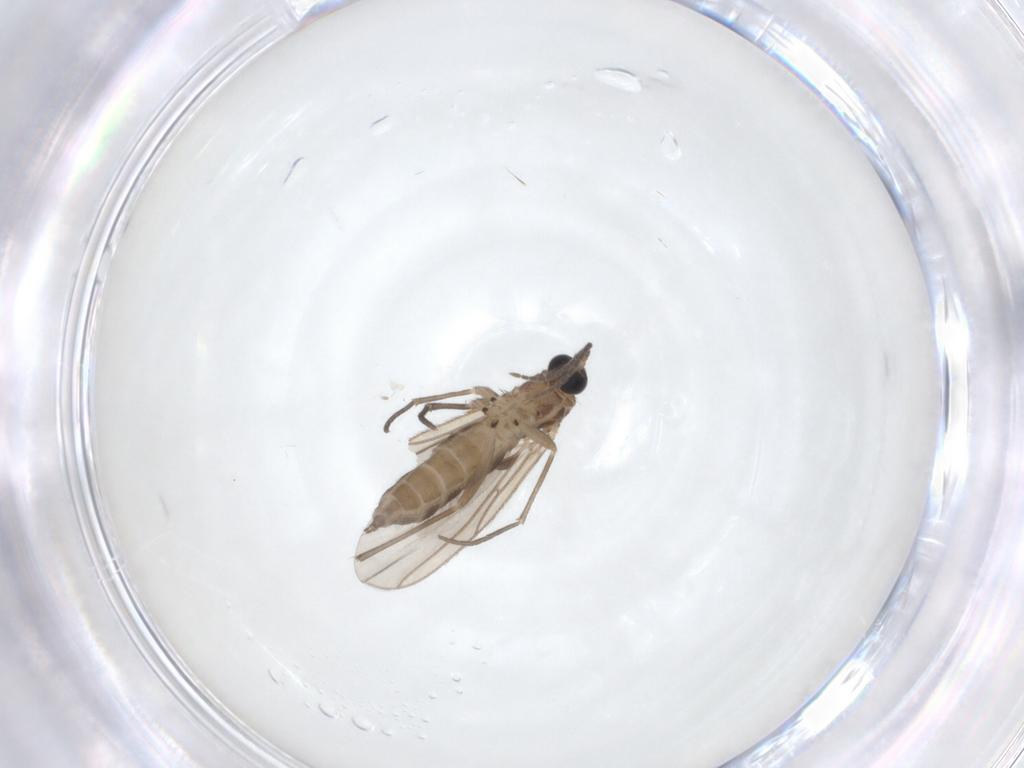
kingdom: Animalia
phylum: Arthropoda
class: Insecta
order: Diptera
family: Sciaridae
